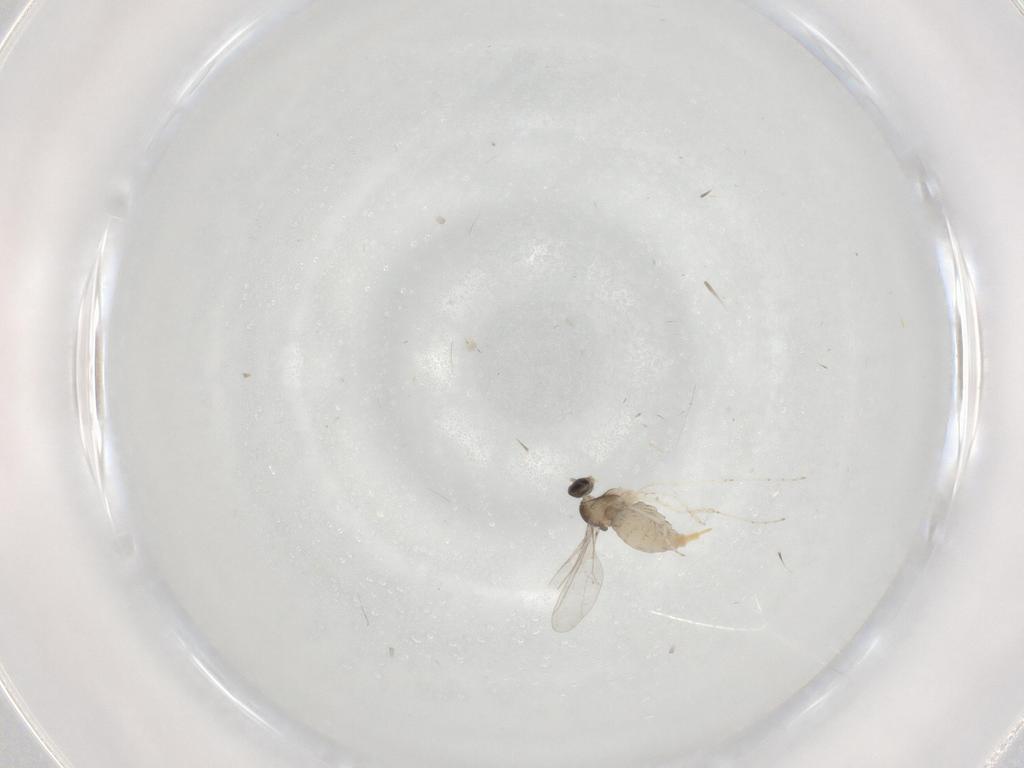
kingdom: Animalia
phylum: Arthropoda
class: Insecta
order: Diptera
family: Cecidomyiidae
